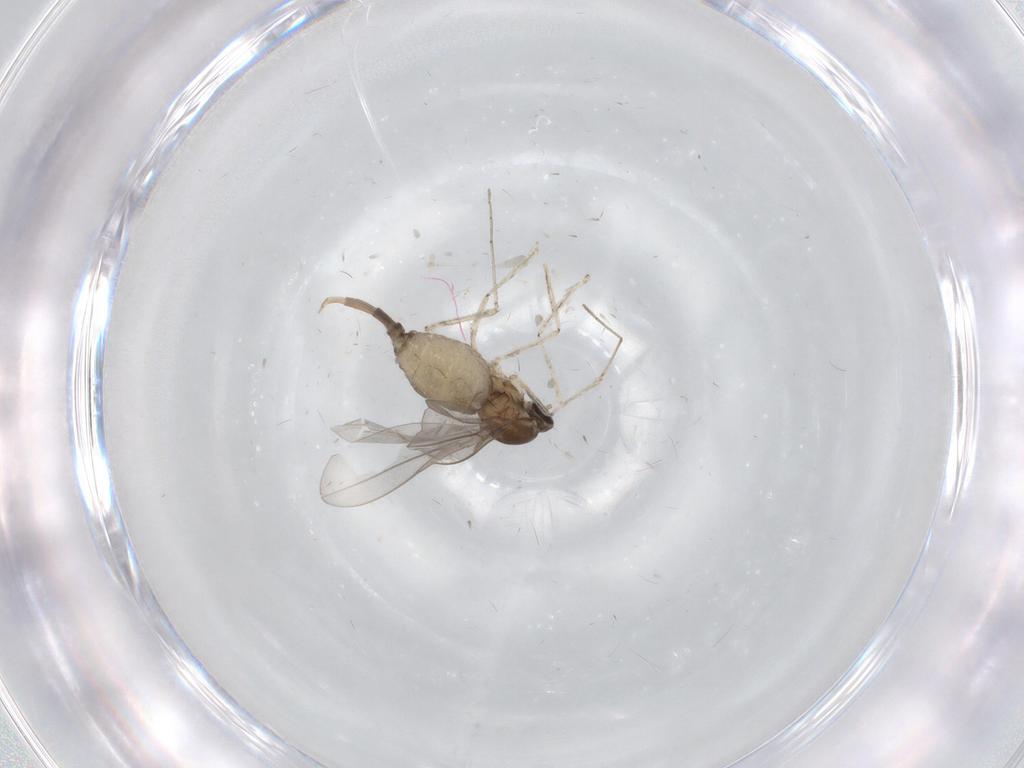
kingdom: Animalia
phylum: Arthropoda
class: Insecta
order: Diptera
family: Cecidomyiidae
